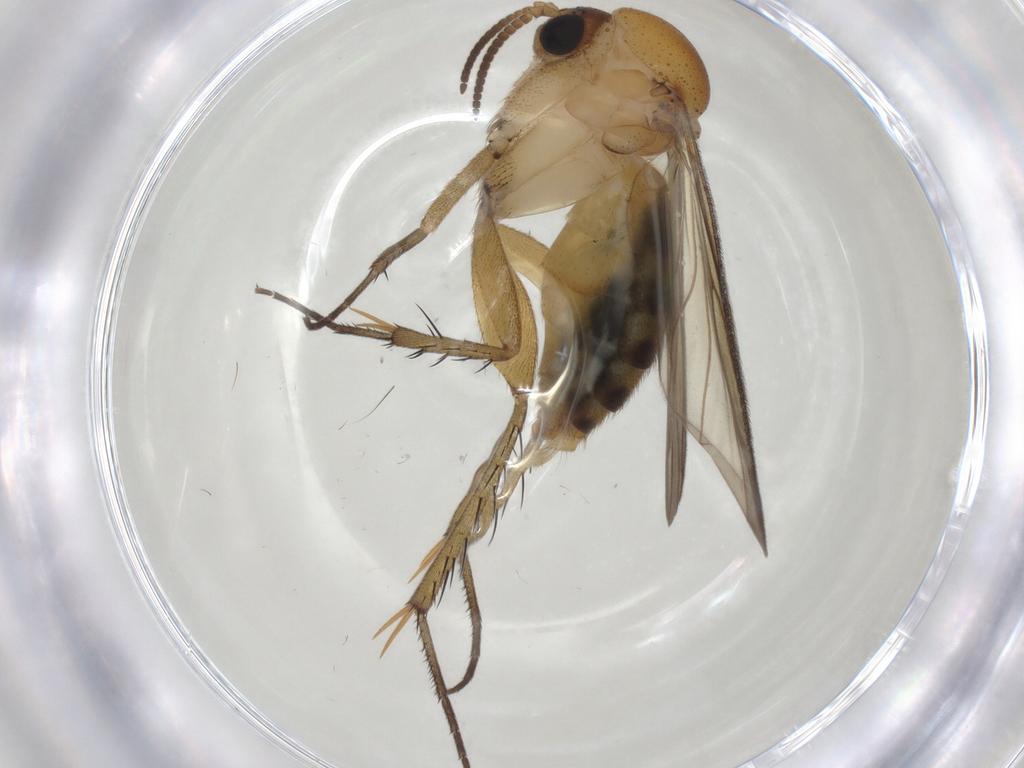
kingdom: Animalia
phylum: Arthropoda
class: Insecta
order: Diptera
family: Mycetophilidae
